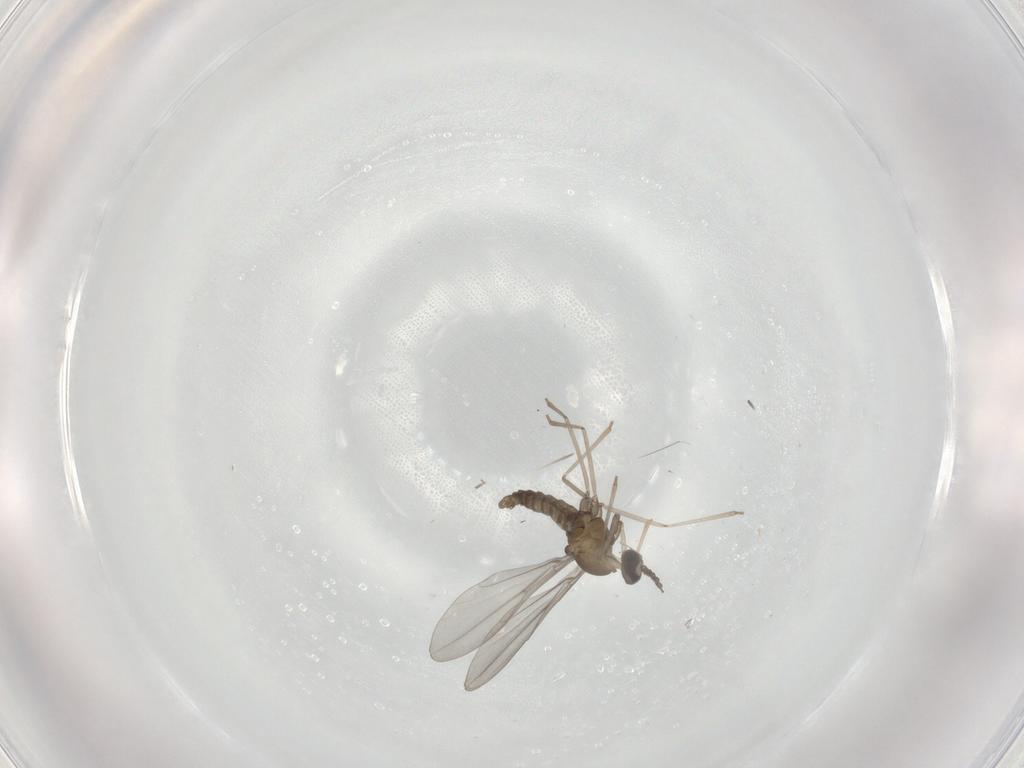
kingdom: Animalia
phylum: Arthropoda
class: Insecta
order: Diptera
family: Cecidomyiidae
